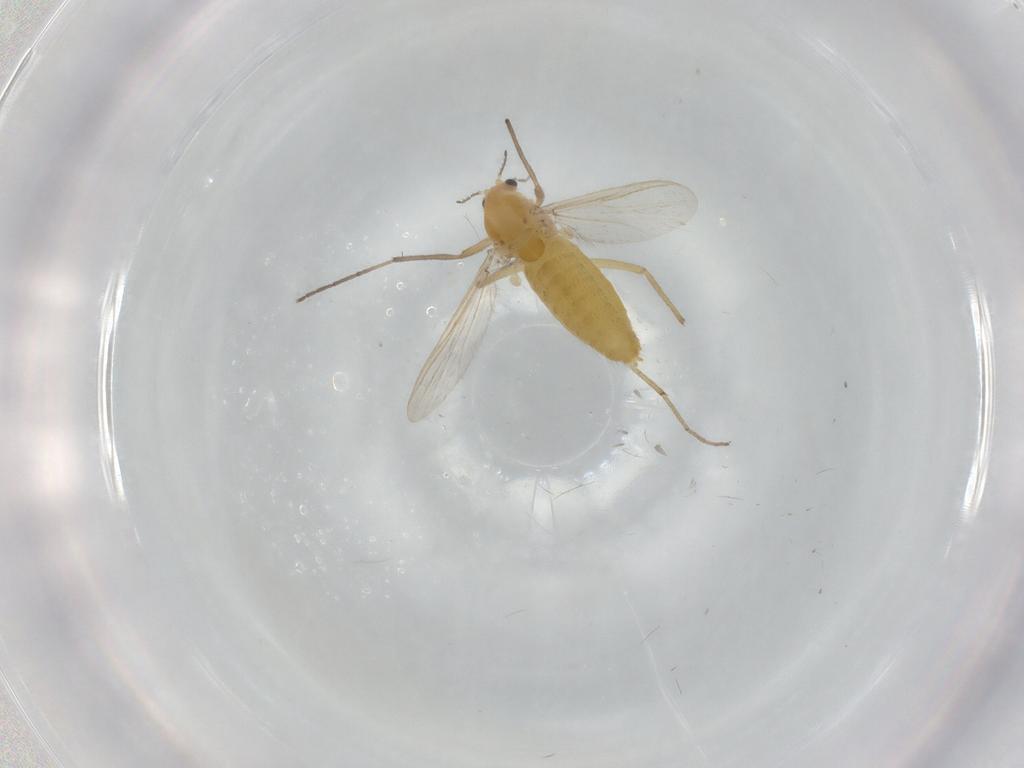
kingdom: Animalia
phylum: Arthropoda
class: Insecta
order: Diptera
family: Chironomidae
